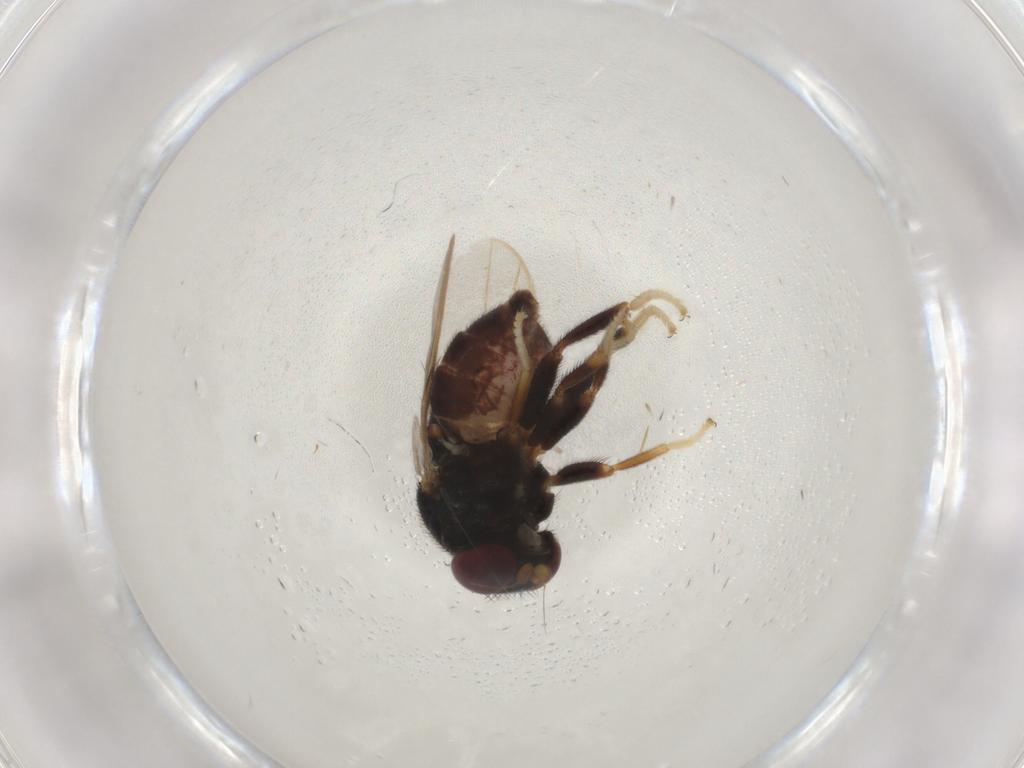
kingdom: Animalia
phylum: Arthropoda
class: Insecta
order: Diptera
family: Chloropidae
